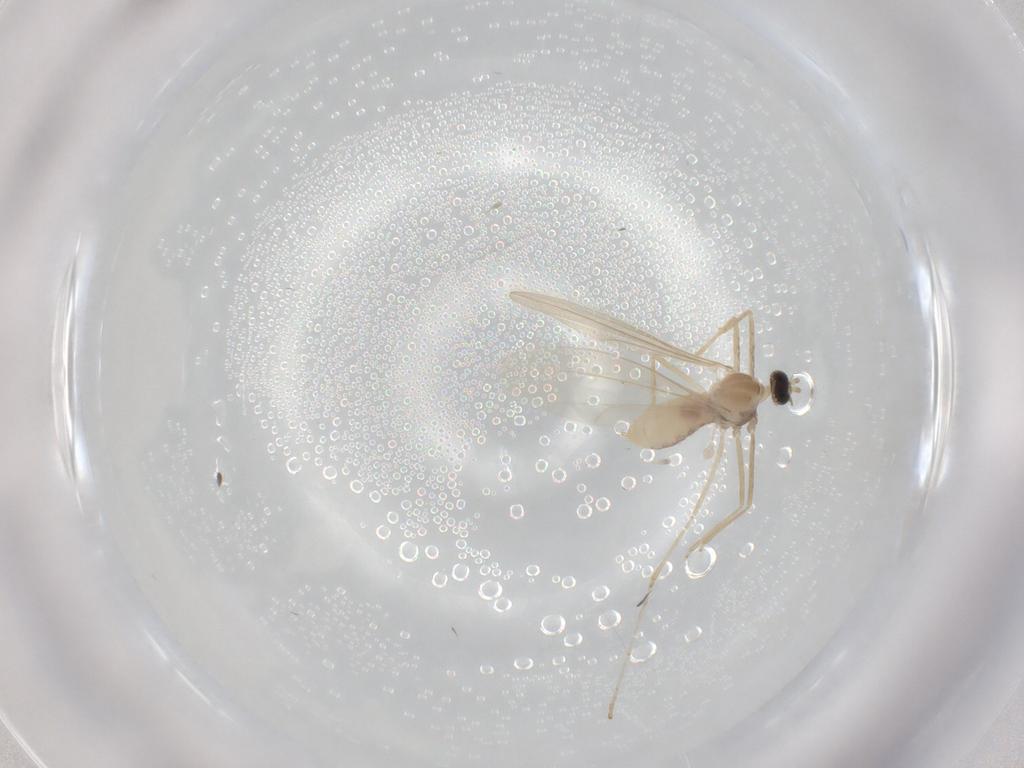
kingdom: Animalia
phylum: Arthropoda
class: Insecta
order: Diptera
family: Cecidomyiidae
